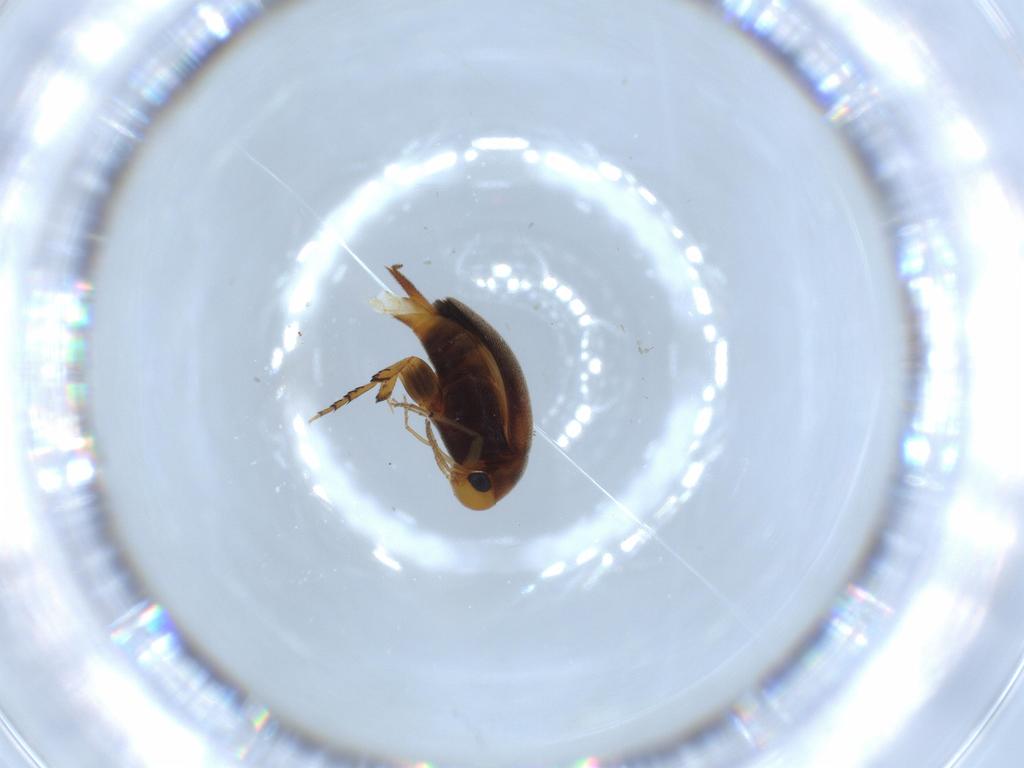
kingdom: Animalia
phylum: Arthropoda
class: Insecta
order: Coleoptera
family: Mordellidae
